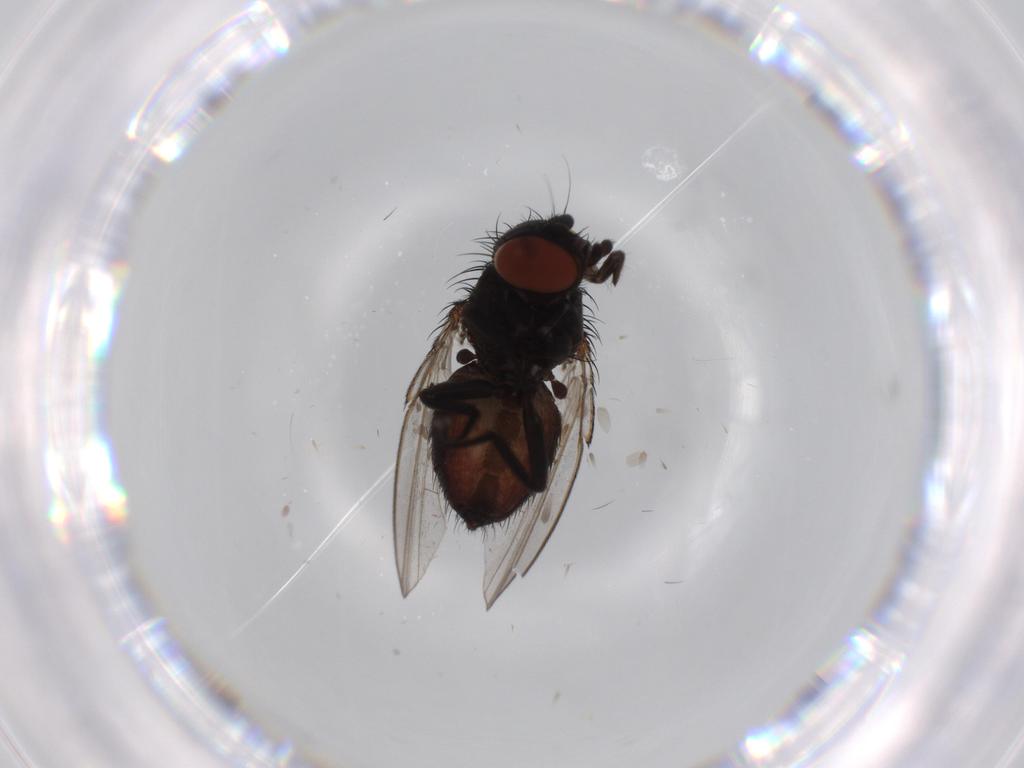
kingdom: Animalia
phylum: Arthropoda
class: Insecta
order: Diptera
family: Milichiidae
